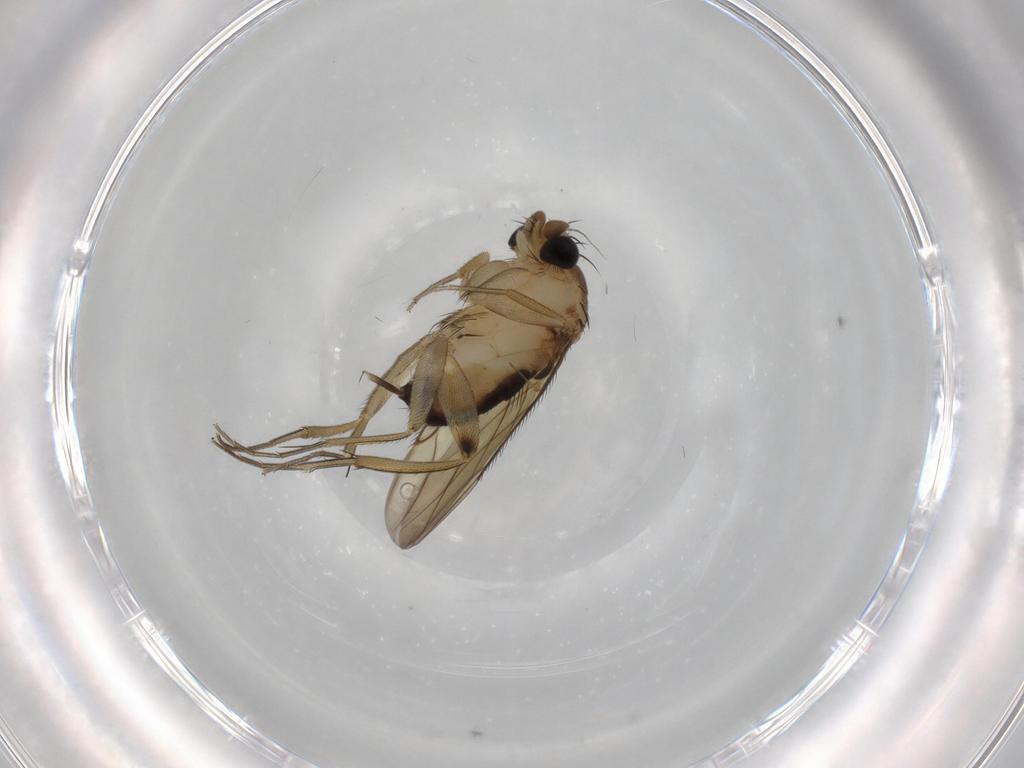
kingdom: Animalia
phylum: Arthropoda
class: Insecta
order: Diptera
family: Phoridae
